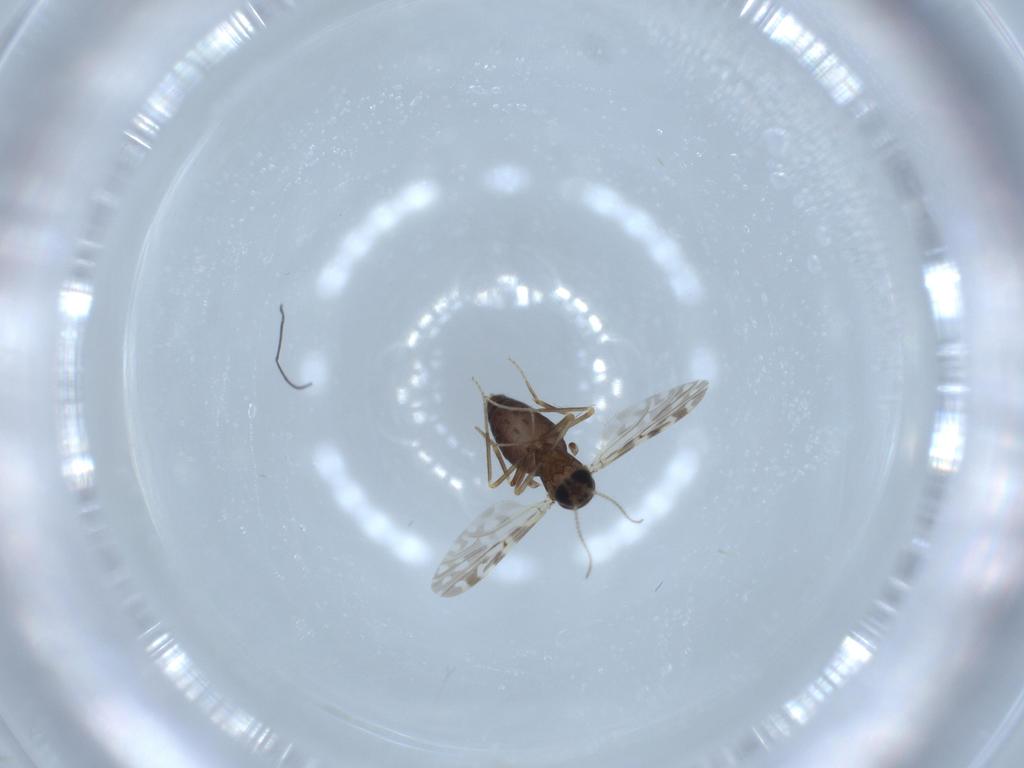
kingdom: Animalia
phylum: Arthropoda
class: Insecta
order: Diptera
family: Ceratopogonidae
